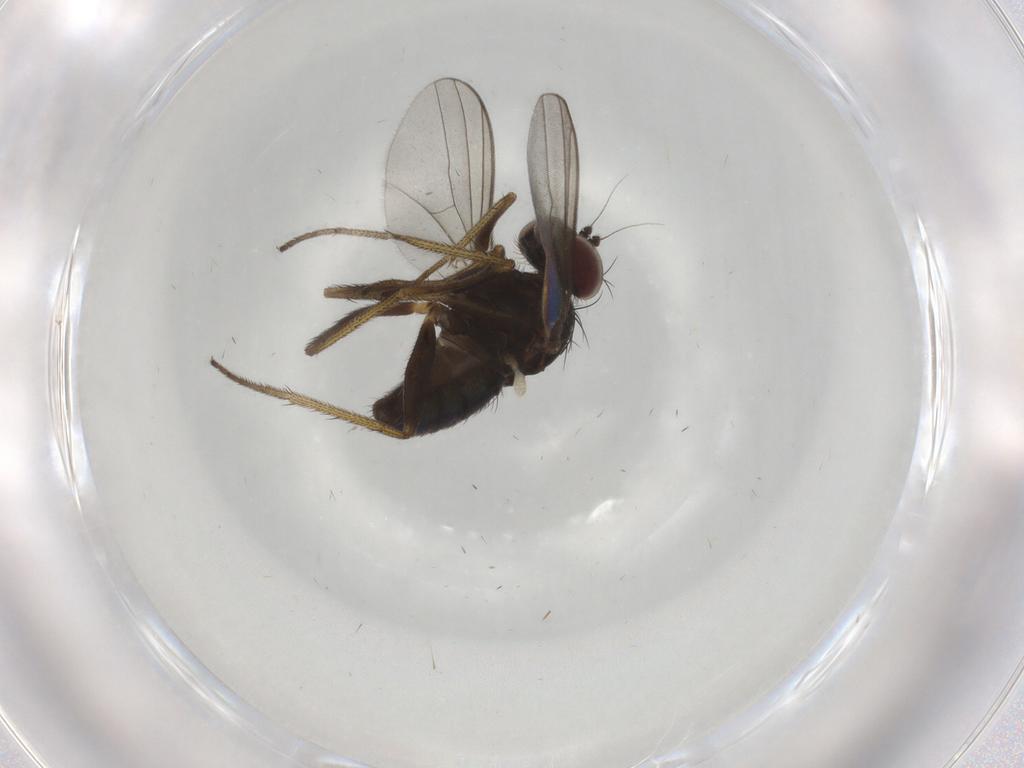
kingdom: Animalia
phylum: Arthropoda
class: Insecta
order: Diptera
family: Dolichopodidae
